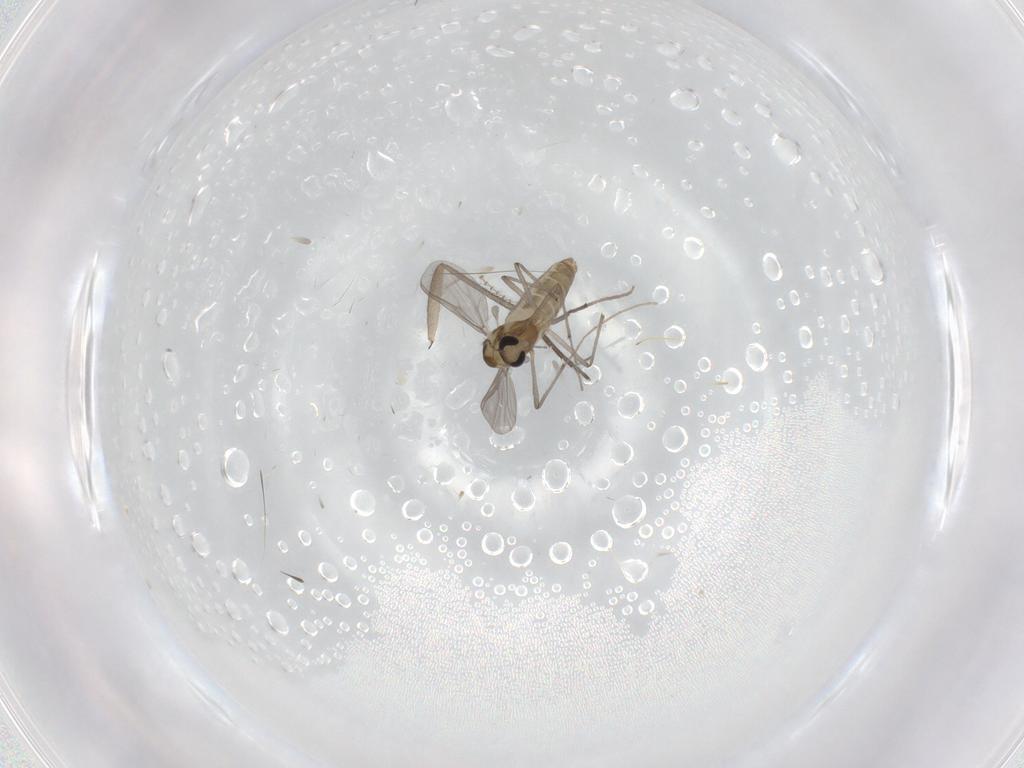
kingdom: Animalia
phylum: Arthropoda
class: Insecta
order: Diptera
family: Sciaridae
